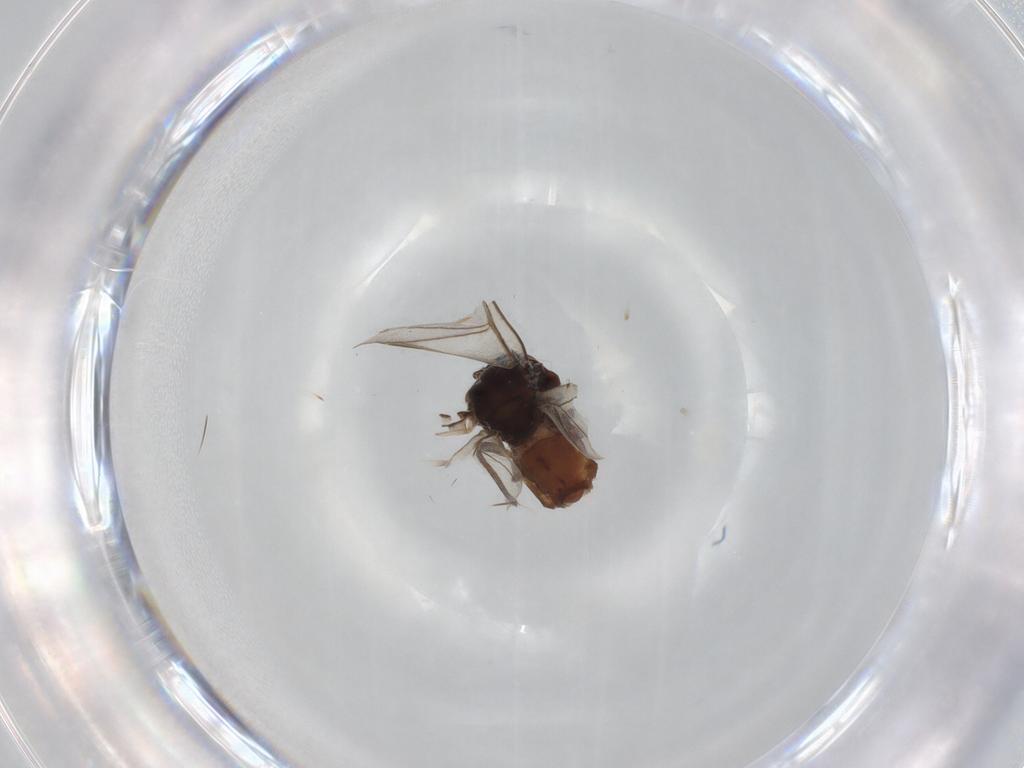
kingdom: Animalia
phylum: Arthropoda
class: Insecta
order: Hemiptera
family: Aphididae
